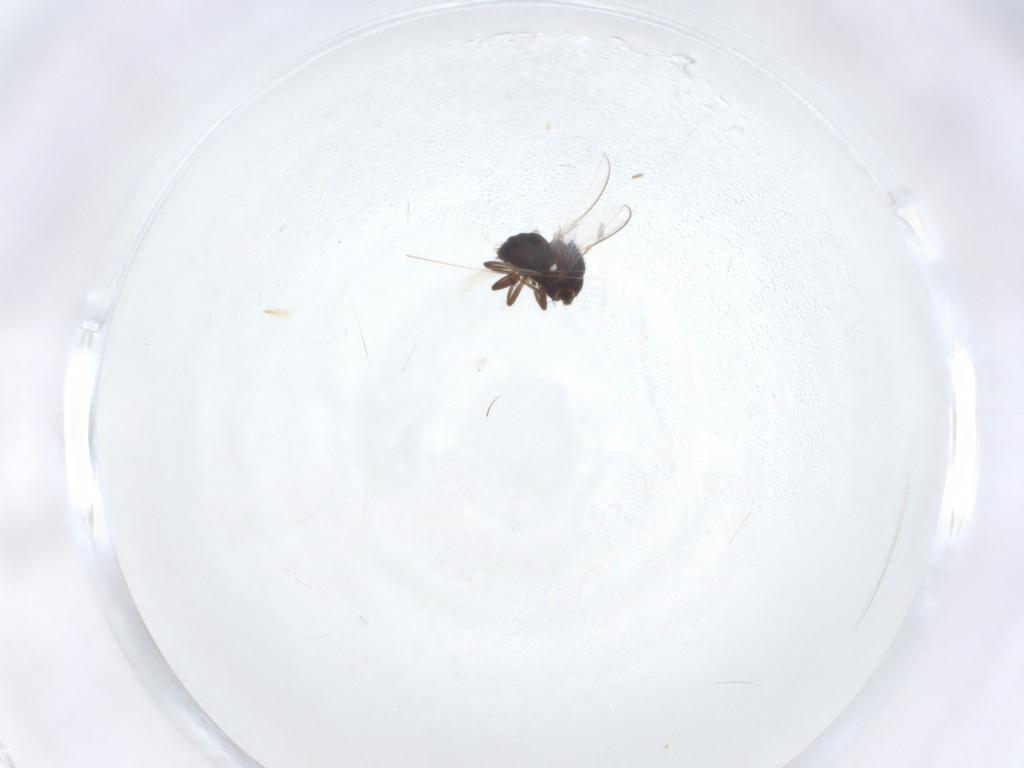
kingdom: Animalia
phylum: Arthropoda
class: Insecta
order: Diptera
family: Carnidae
